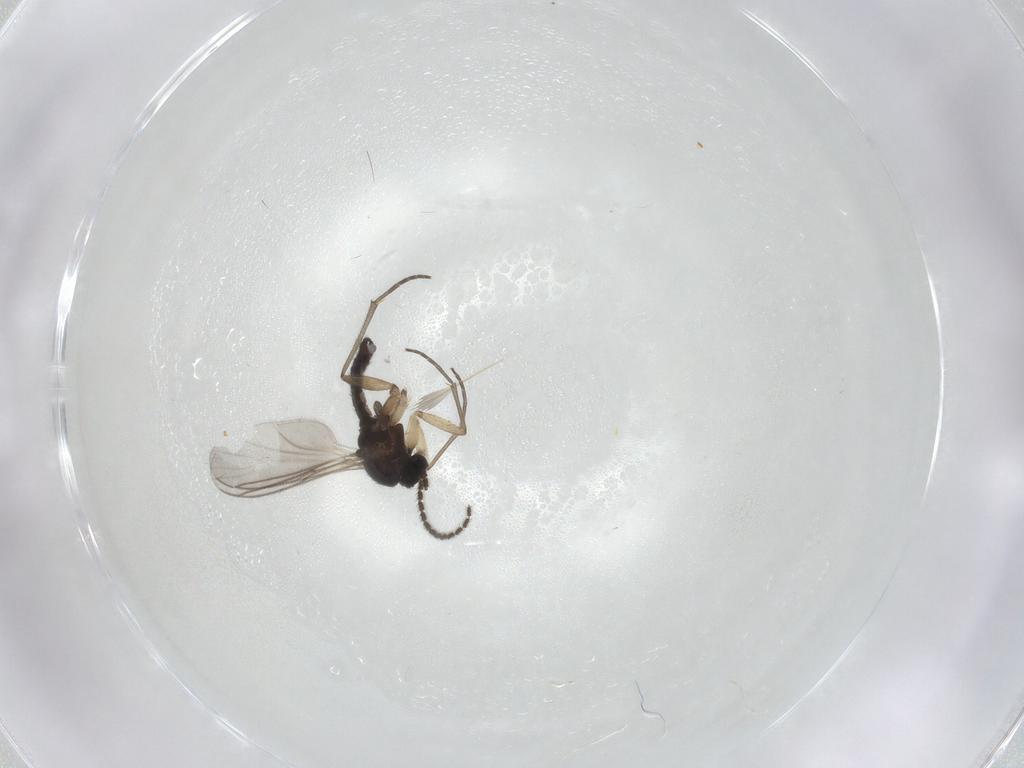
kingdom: Animalia
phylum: Arthropoda
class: Insecta
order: Diptera
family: Sciaridae
